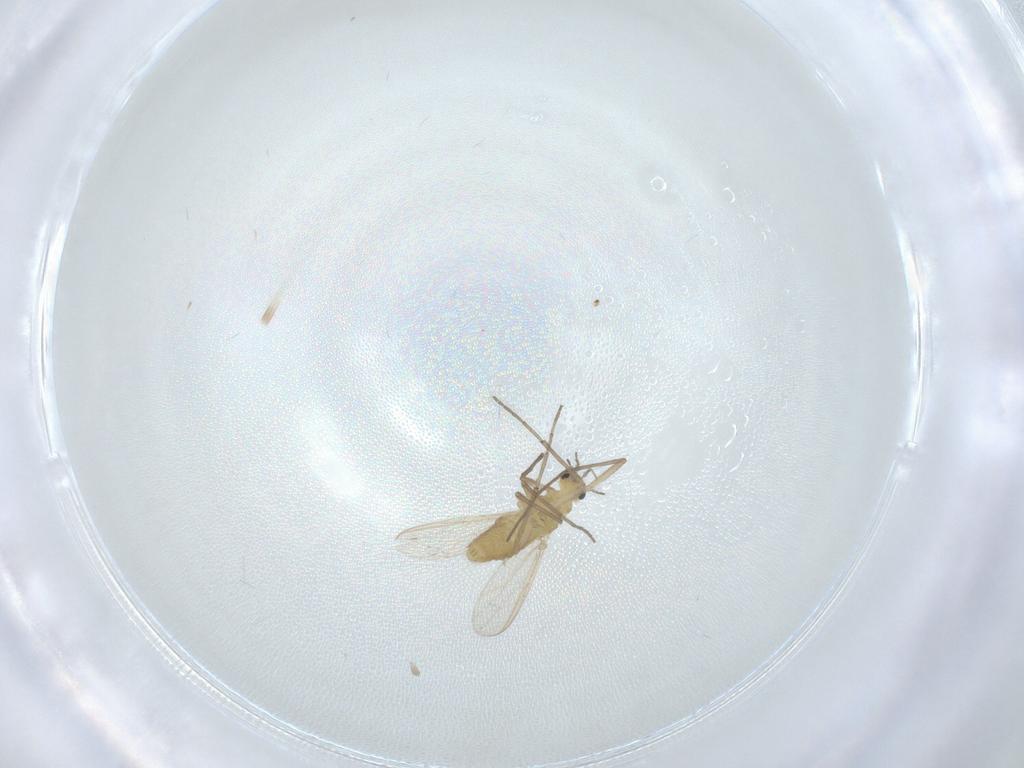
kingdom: Animalia
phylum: Arthropoda
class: Insecta
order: Diptera
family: Chironomidae
